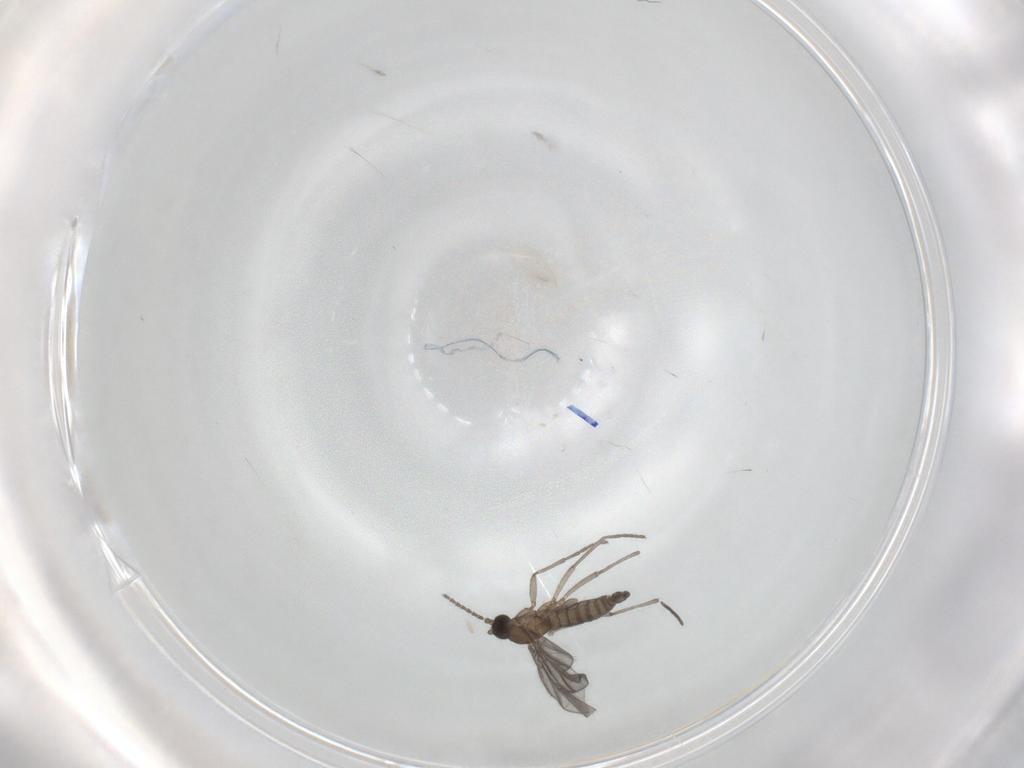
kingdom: Animalia
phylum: Arthropoda
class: Insecta
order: Diptera
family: Sciaridae
